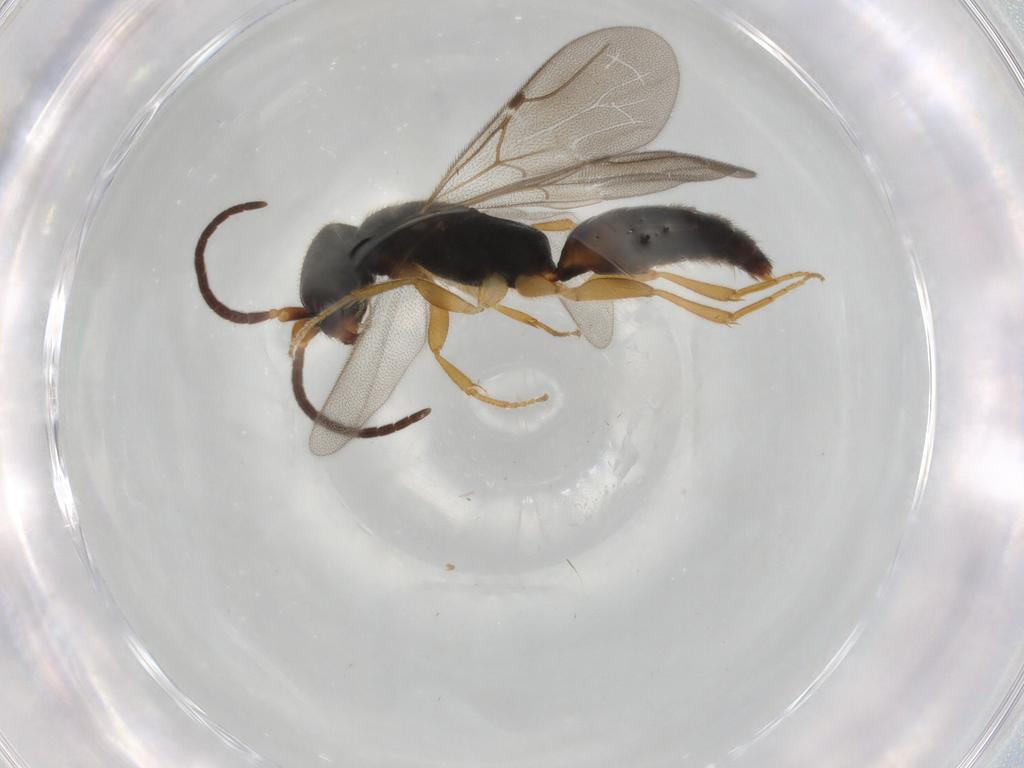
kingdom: Animalia
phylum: Arthropoda
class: Insecta
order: Hymenoptera
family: Bethylidae
